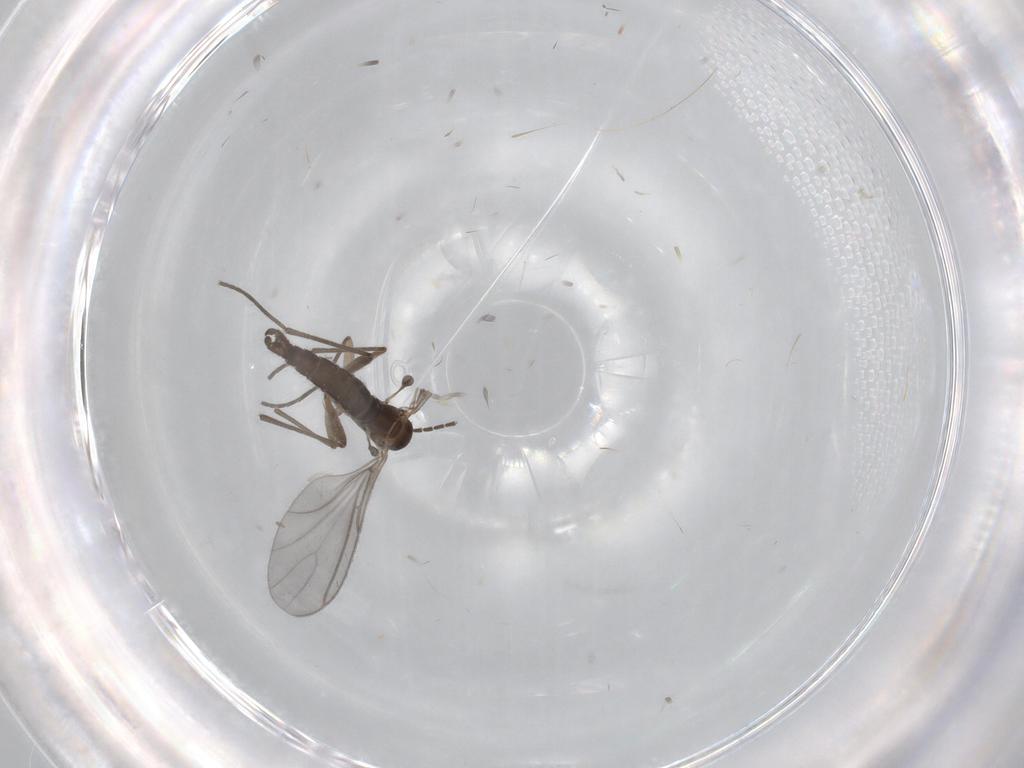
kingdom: Animalia
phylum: Arthropoda
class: Insecta
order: Diptera
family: Sciaridae
